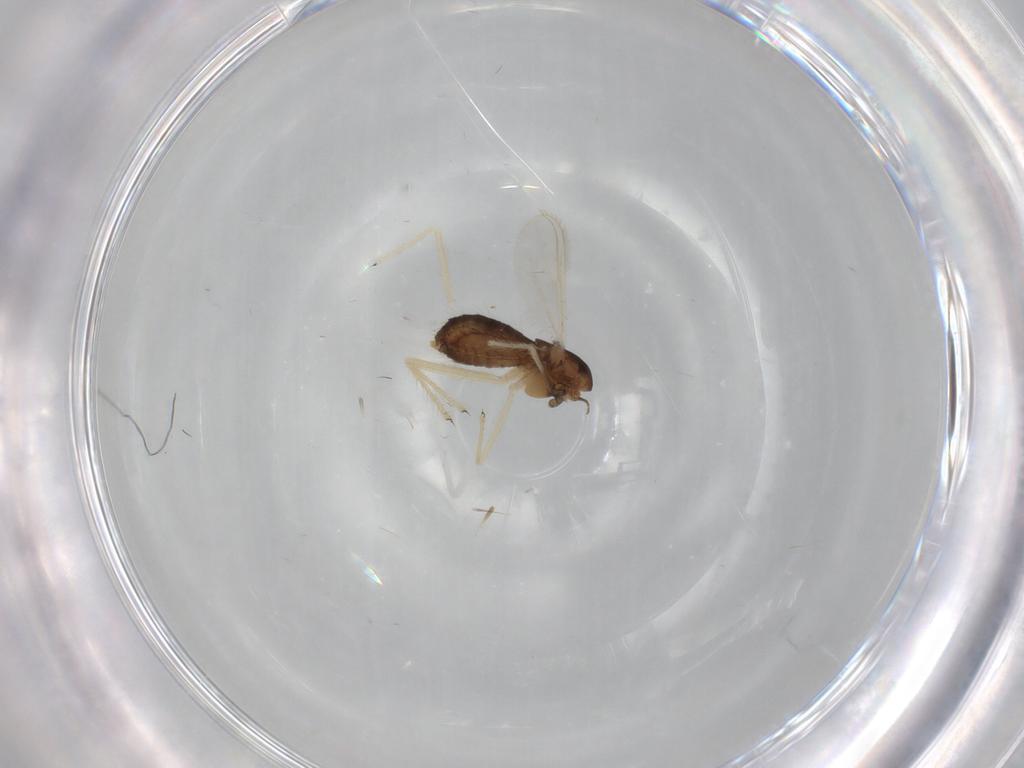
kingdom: Animalia
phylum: Arthropoda
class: Insecta
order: Diptera
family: Chironomidae
